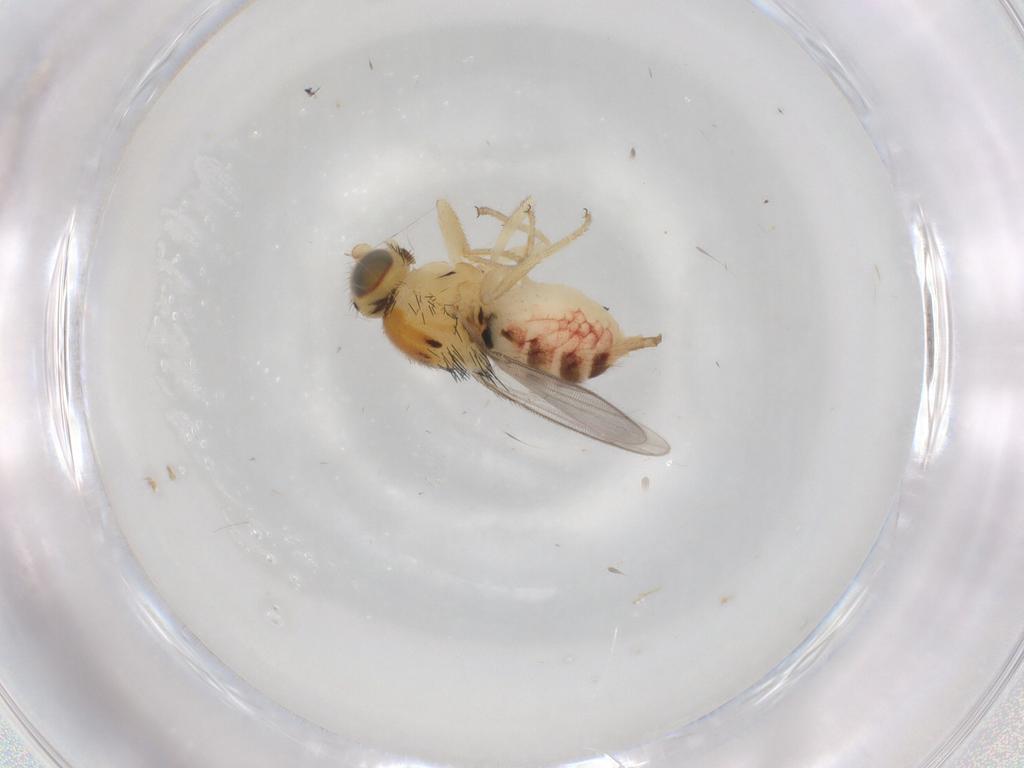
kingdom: Animalia
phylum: Arthropoda
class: Insecta
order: Diptera
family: Chloropidae
